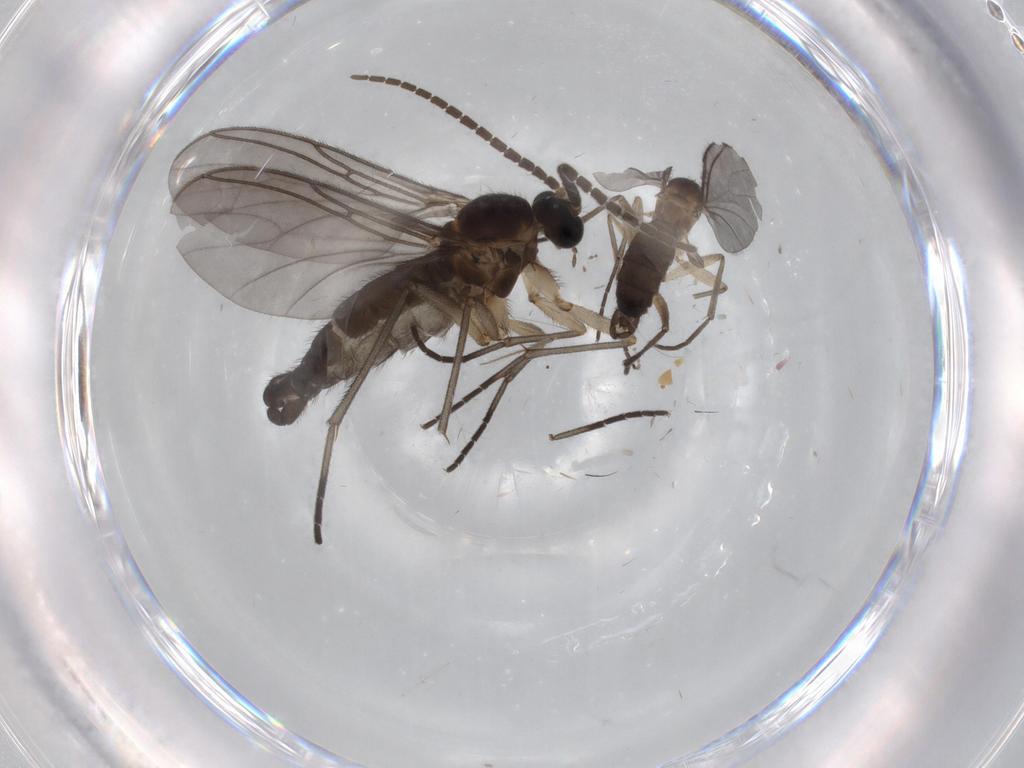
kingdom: Animalia
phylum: Arthropoda
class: Insecta
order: Diptera
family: Sciaridae
